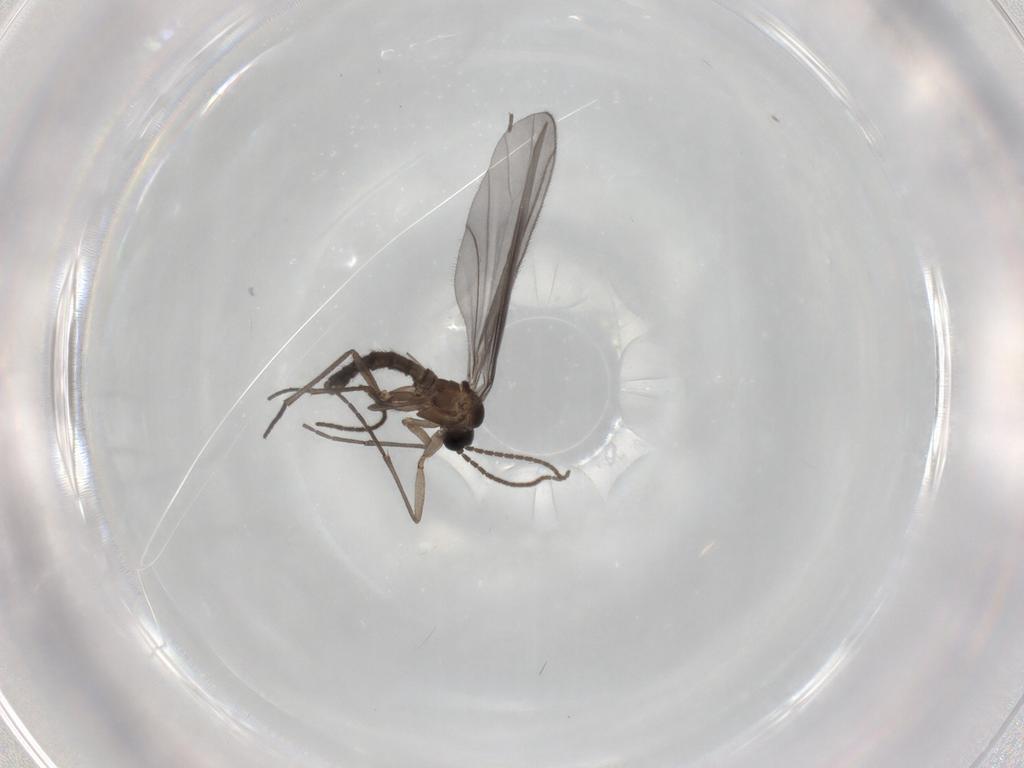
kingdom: Animalia
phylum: Arthropoda
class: Insecta
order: Diptera
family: Sciaridae
